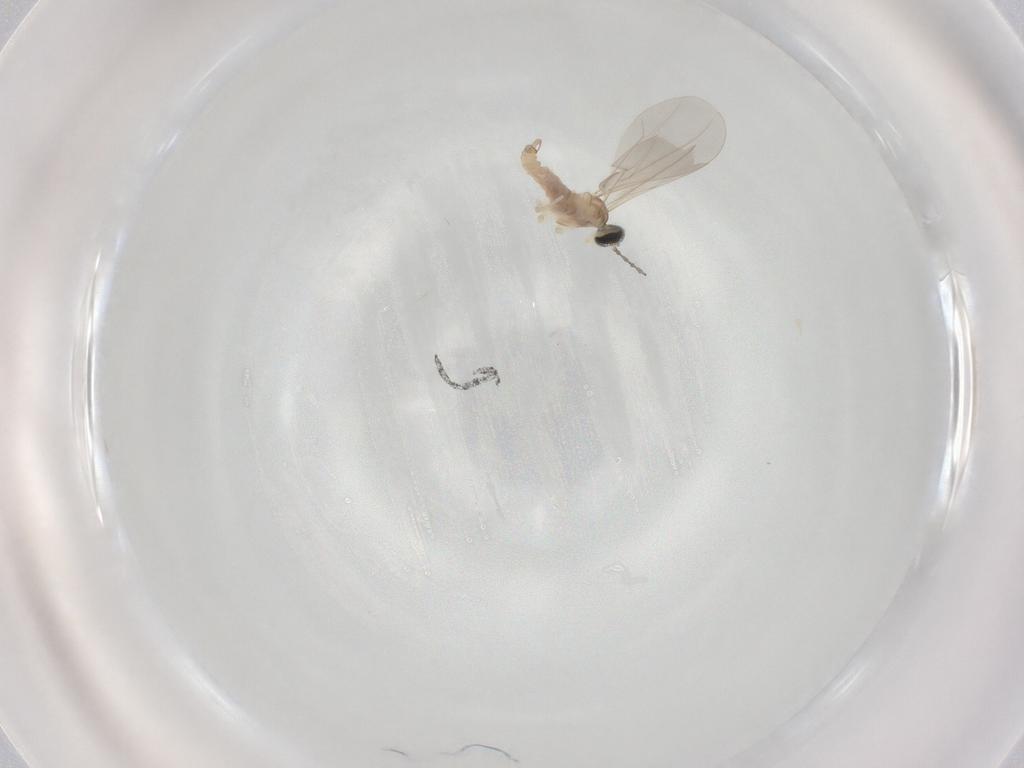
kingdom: Animalia
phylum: Arthropoda
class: Insecta
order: Diptera
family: Cecidomyiidae
